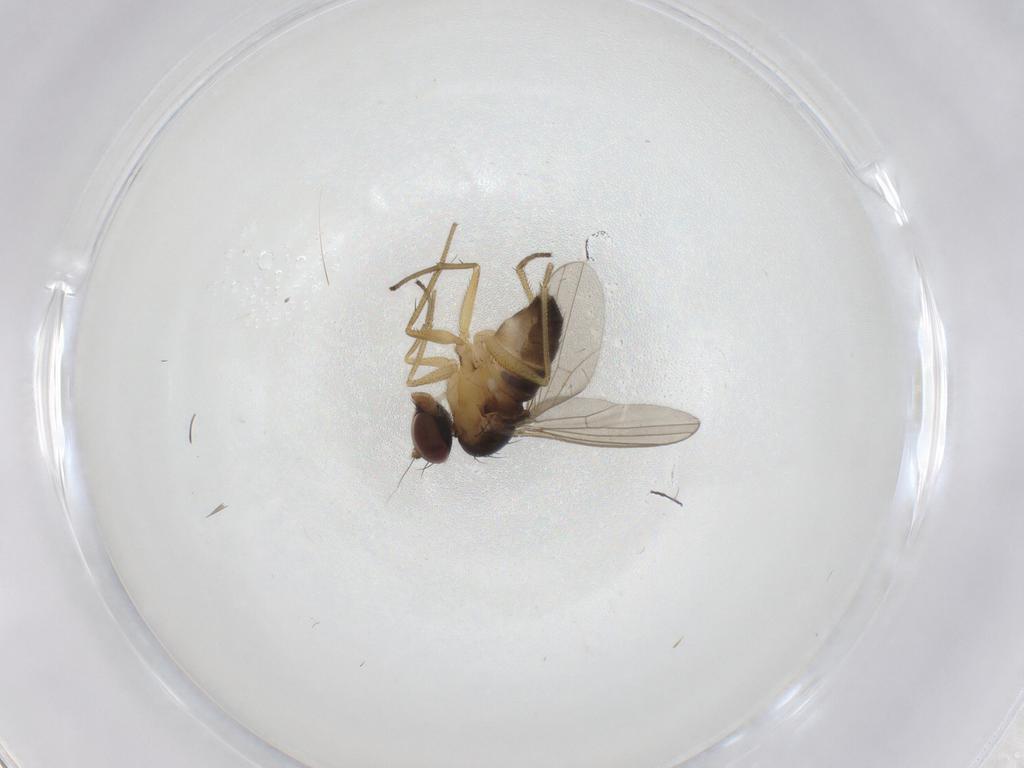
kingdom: Animalia
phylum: Arthropoda
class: Insecta
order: Diptera
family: Dolichopodidae
